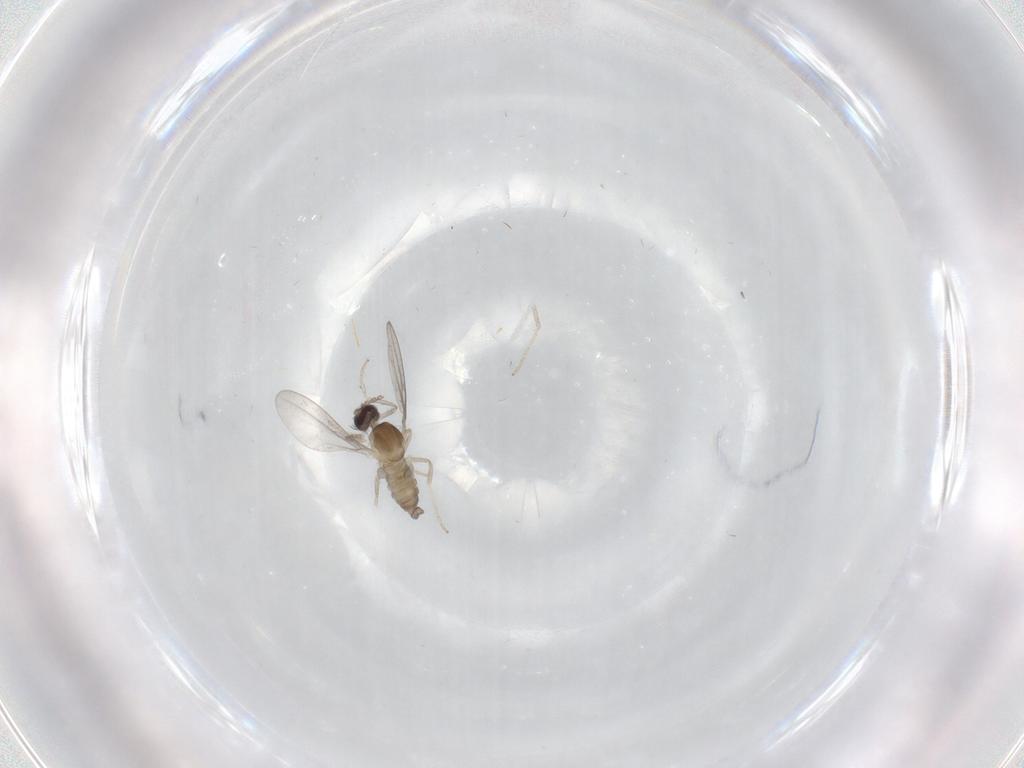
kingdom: Animalia
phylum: Arthropoda
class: Insecta
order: Diptera
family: Cecidomyiidae
